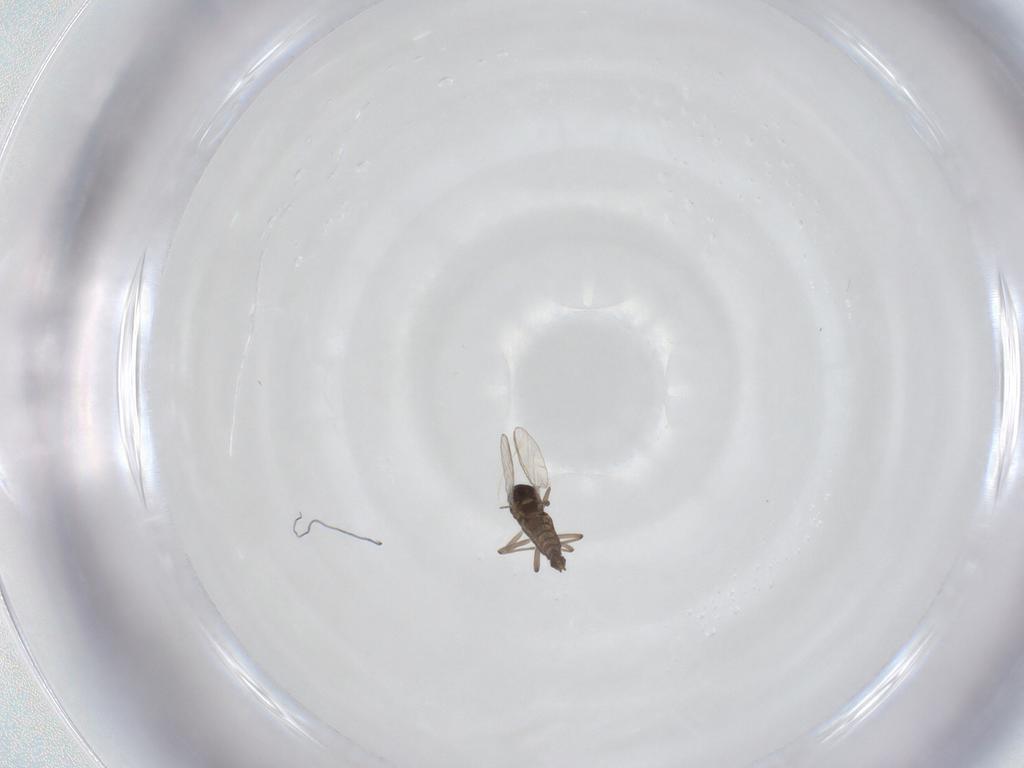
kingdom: Animalia
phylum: Arthropoda
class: Insecta
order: Diptera
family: Chironomidae
